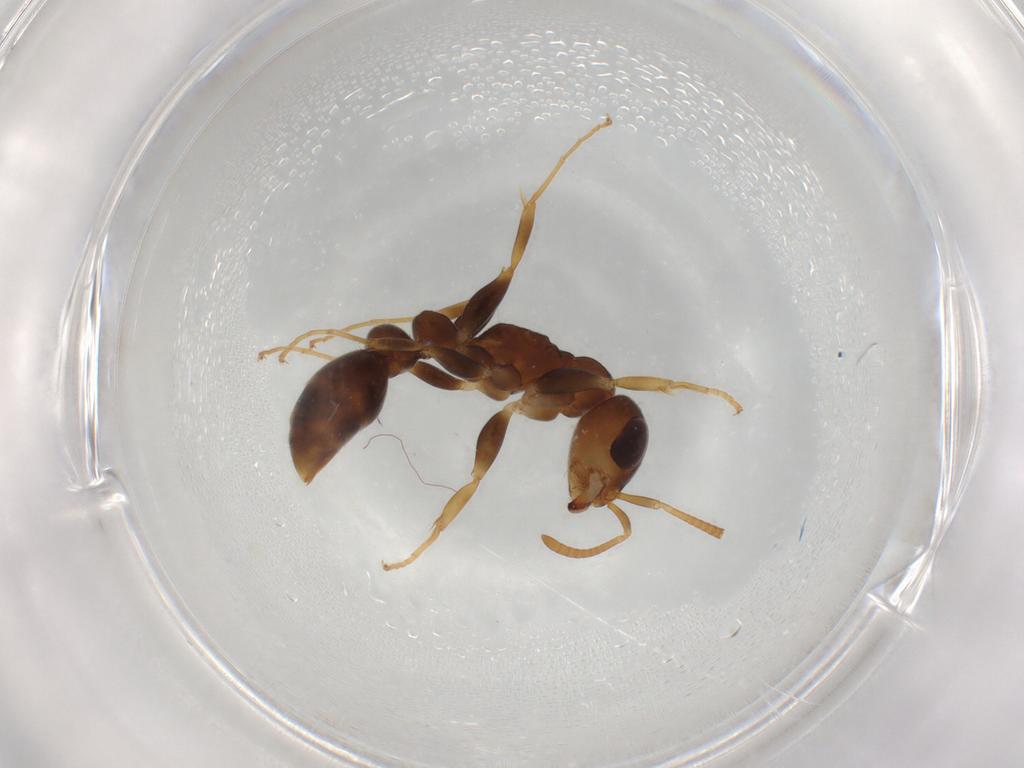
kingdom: Animalia
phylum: Arthropoda
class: Insecta
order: Hymenoptera
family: Formicidae
